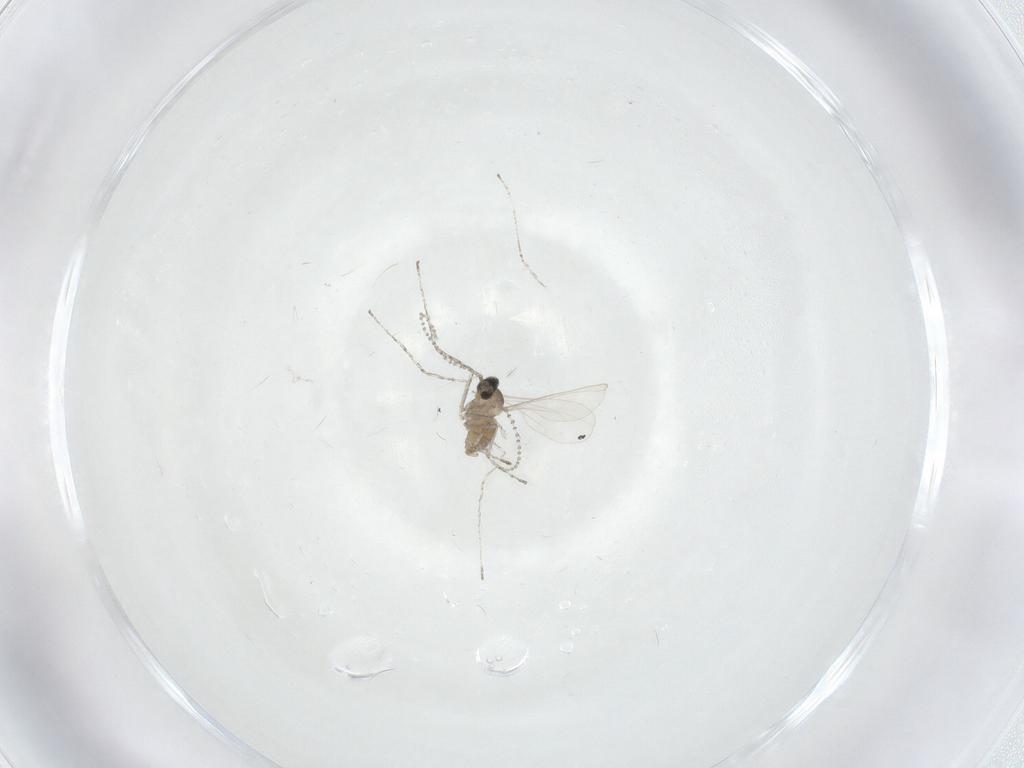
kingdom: Animalia
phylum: Arthropoda
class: Insecta
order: Diptera
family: Cecidomyiidae
